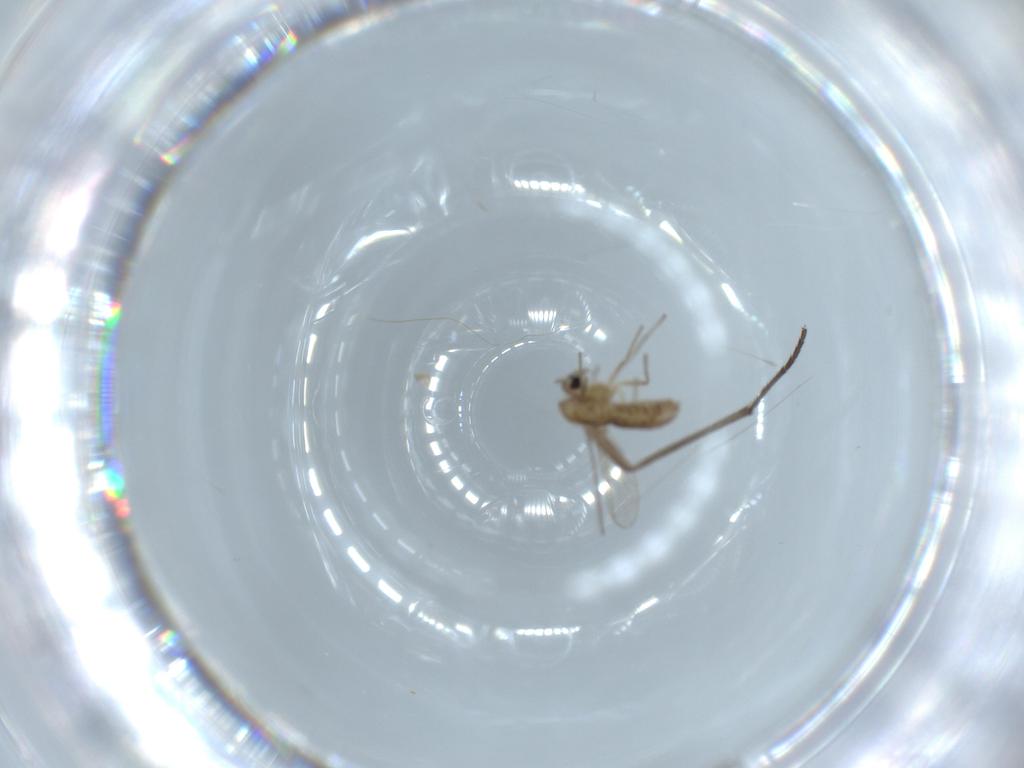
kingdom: Animalia
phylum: Arthropoda
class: Insecta
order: Diptera
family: Chironomidae
